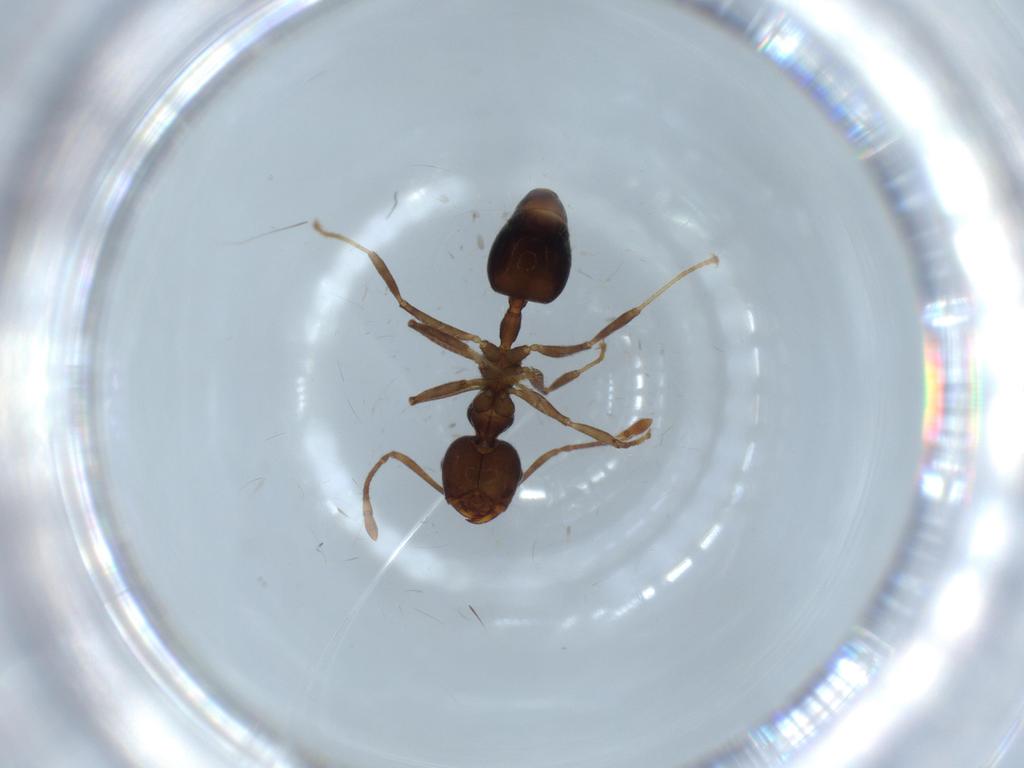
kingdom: Animalia
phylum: Arthropoda
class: Insecta
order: Hymenoptera
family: Formicidae
